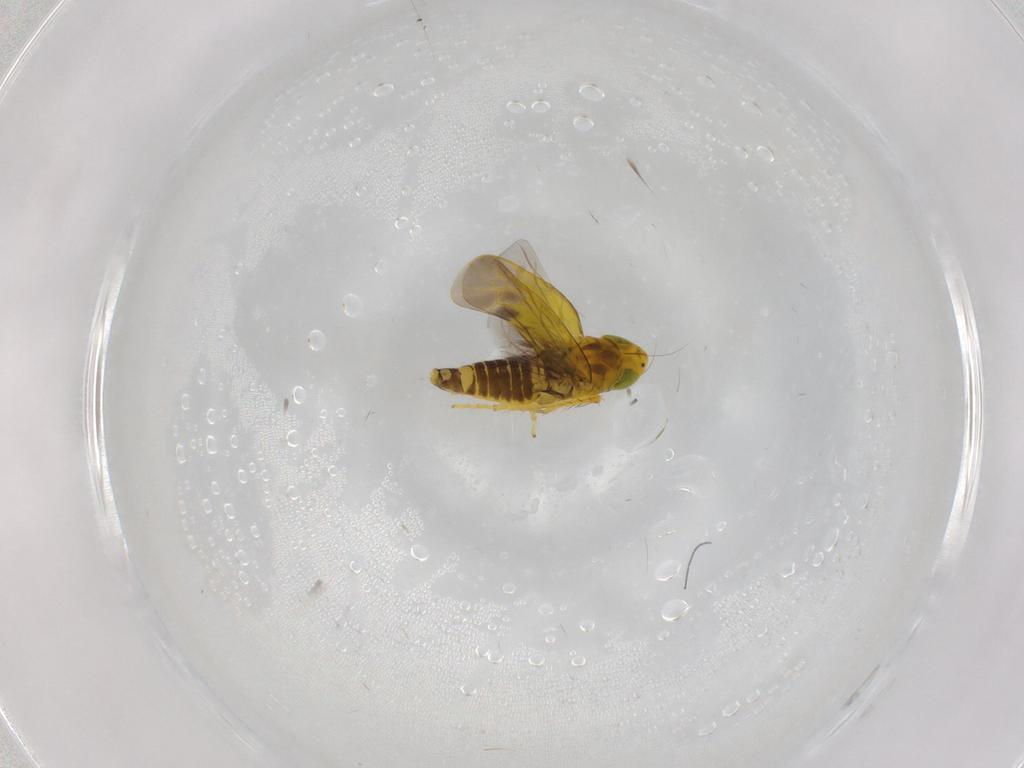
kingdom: Animalia
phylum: Arthropoda
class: Insecta
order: Hemiptera
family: Cicadellidae
